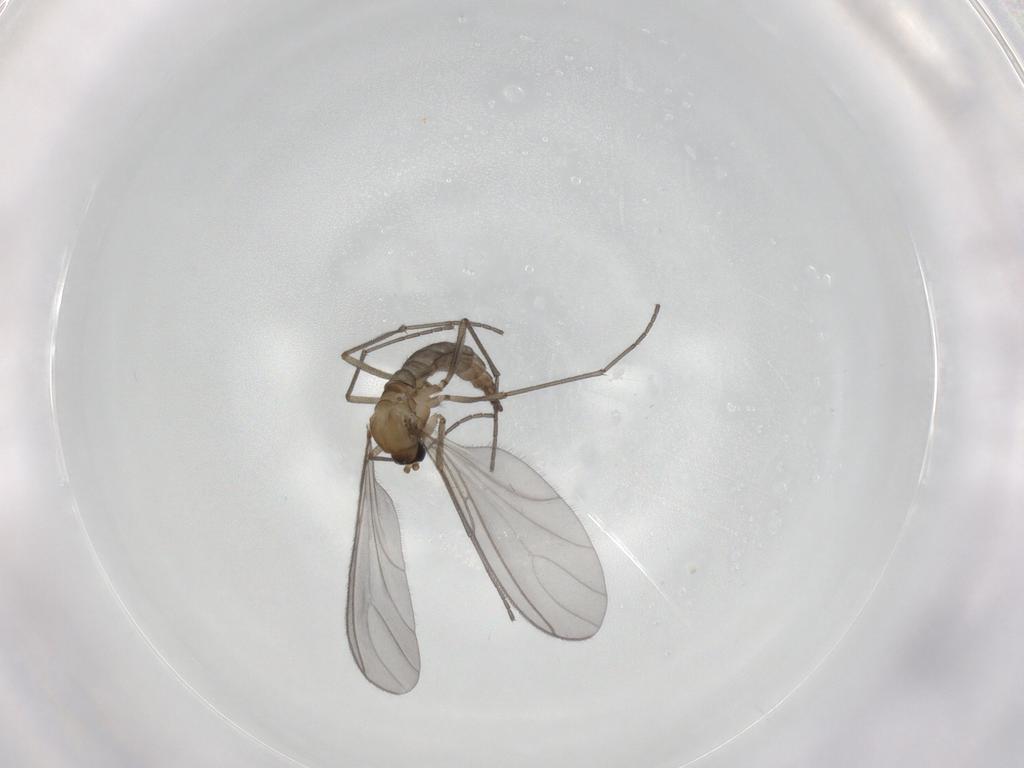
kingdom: Animalia
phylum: Arthropoda
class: Insecta
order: Diptera
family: Sciaridae
